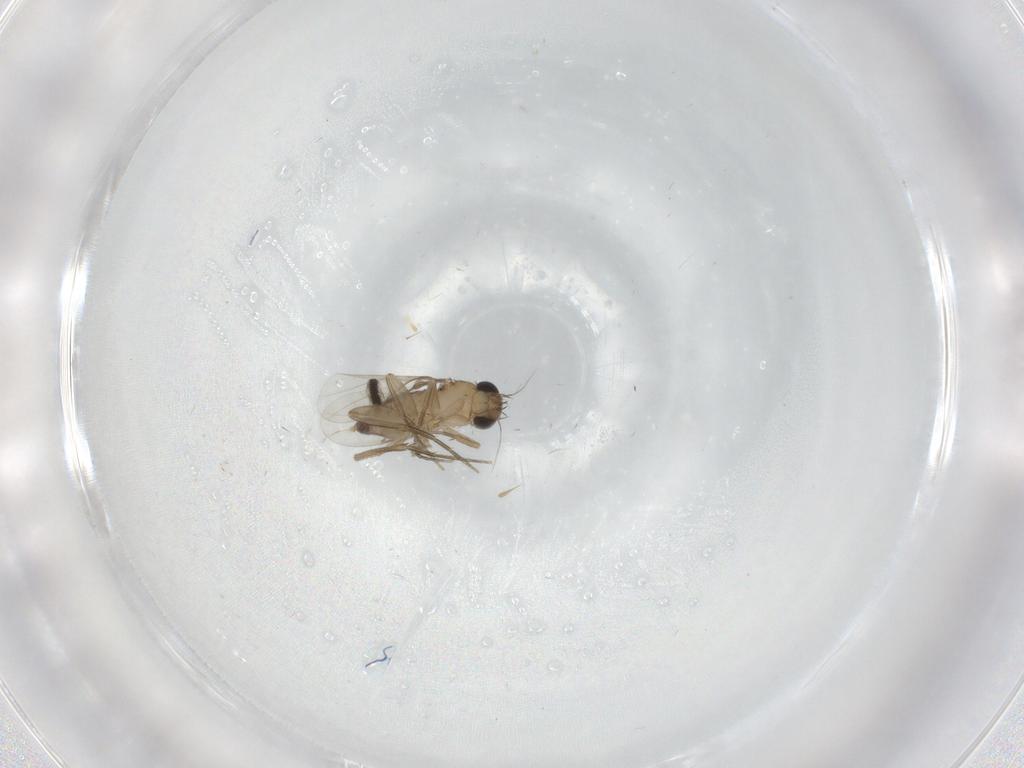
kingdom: Animalia
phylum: Arthropoda
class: Insecta
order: Diptera
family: Phoridae
